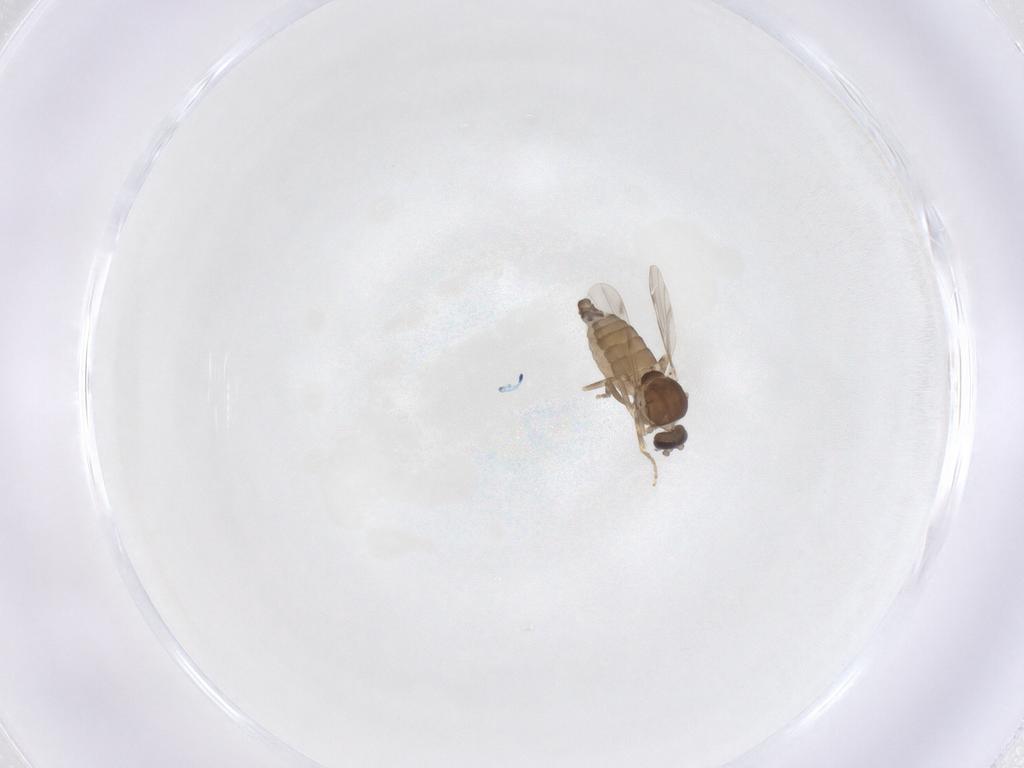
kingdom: Animalia
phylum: Arthropoda
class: Insecta
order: Diptera
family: Ceratopogonidae
